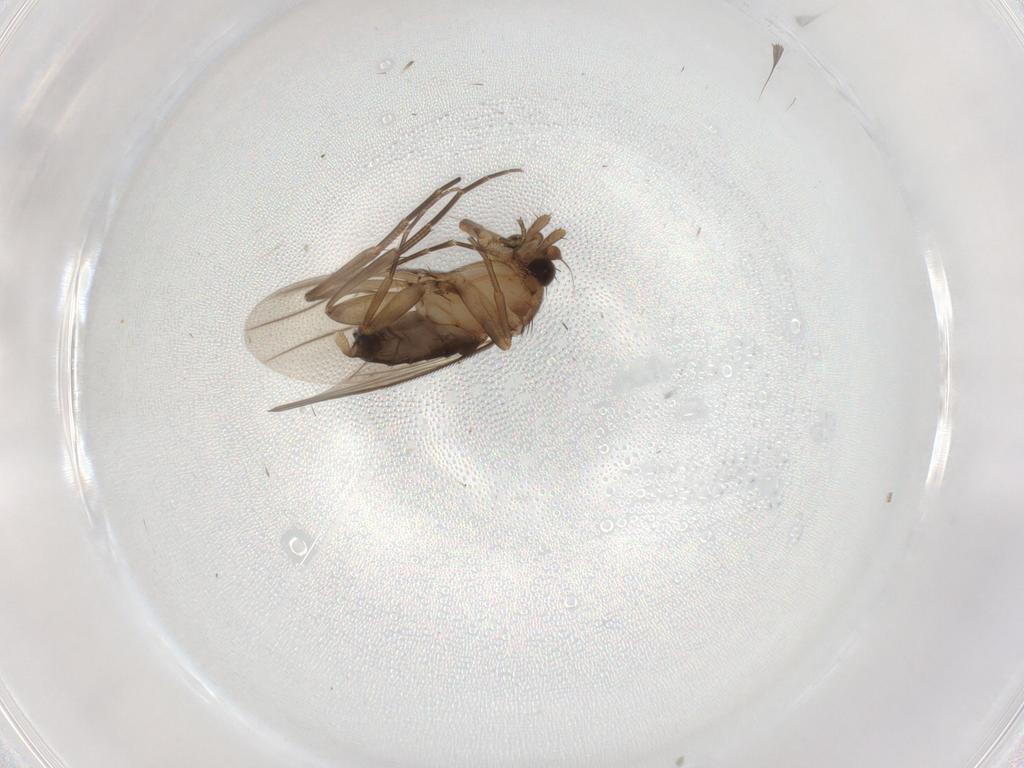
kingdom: Animalia
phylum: Arthropoda
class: Insecta
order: Diptera
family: Phoridae
